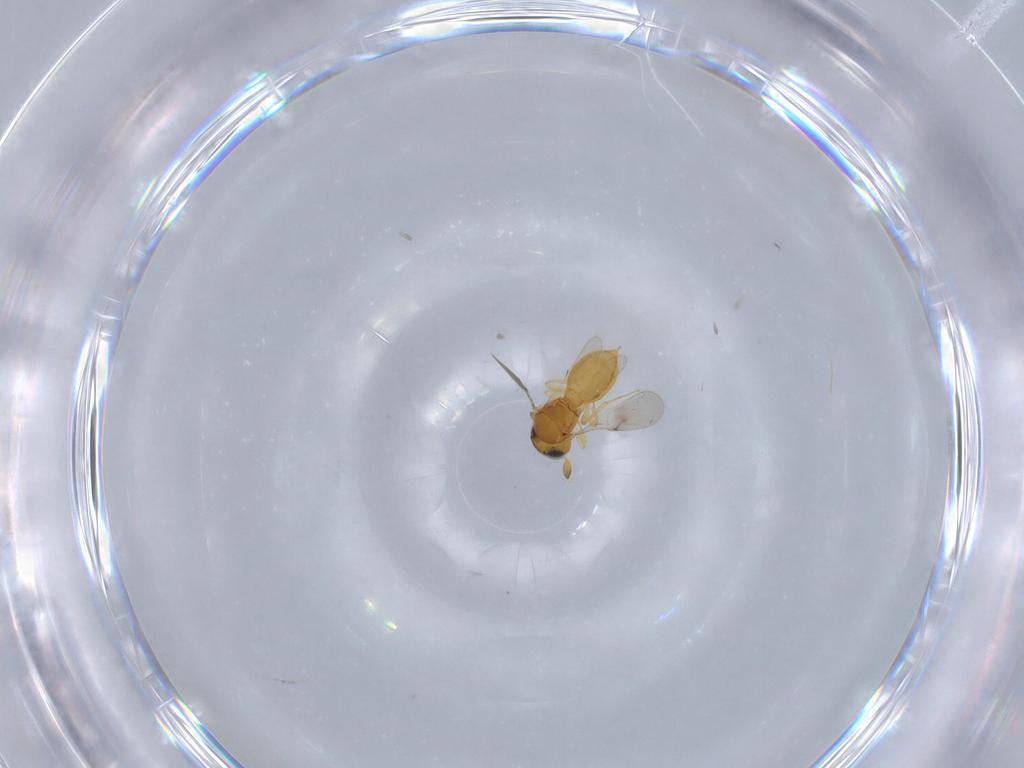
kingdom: Animalia
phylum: Arthropoda
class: Insecta
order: Hymenoptera
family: Scelionidae
